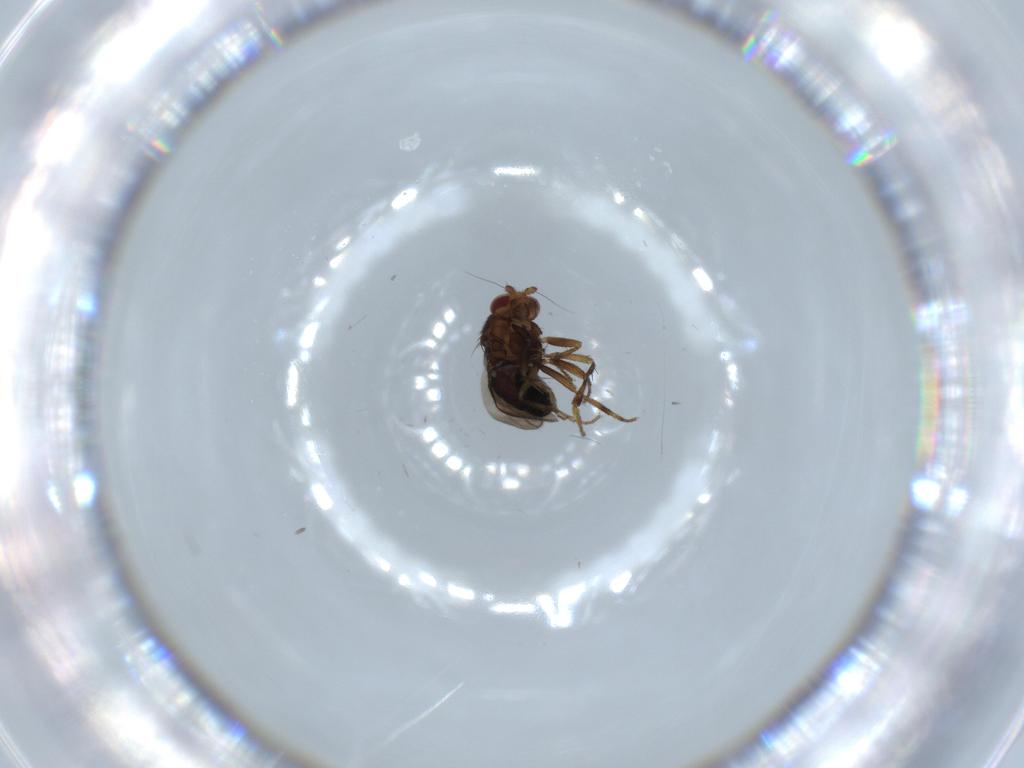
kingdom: Animalia
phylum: Arthropoda
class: Insecta
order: Diptera
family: Sphaeroceridae
